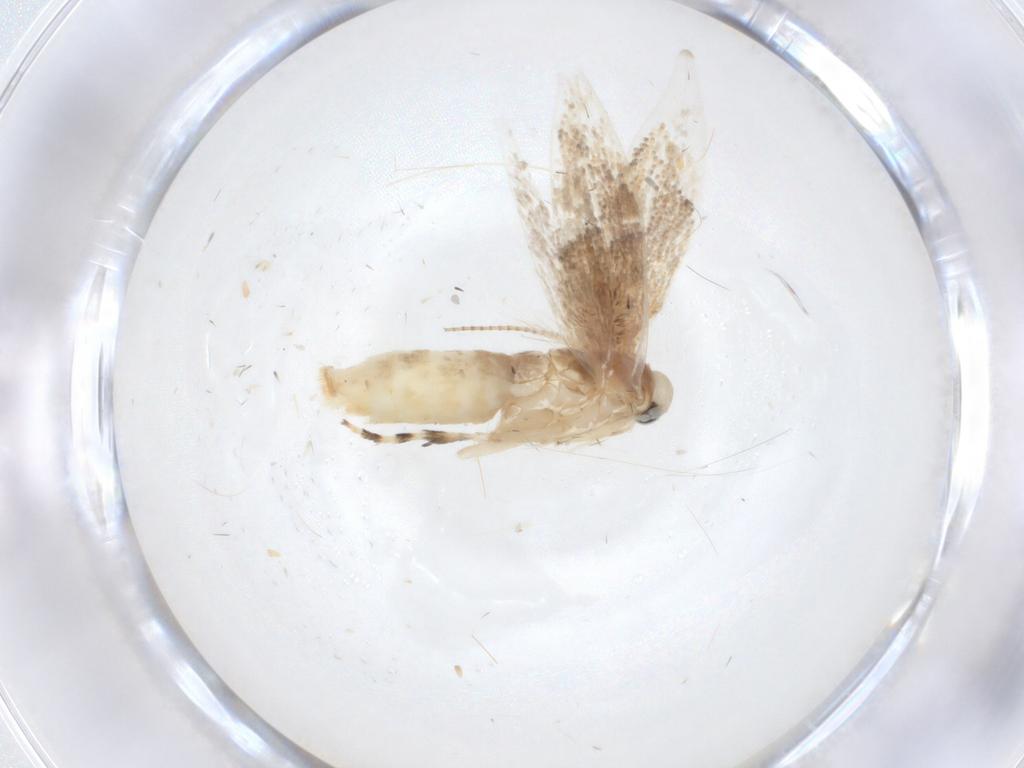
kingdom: Animalia
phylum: Arthropoda
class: Insecta
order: Lepidoptera
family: Gracillariidae
